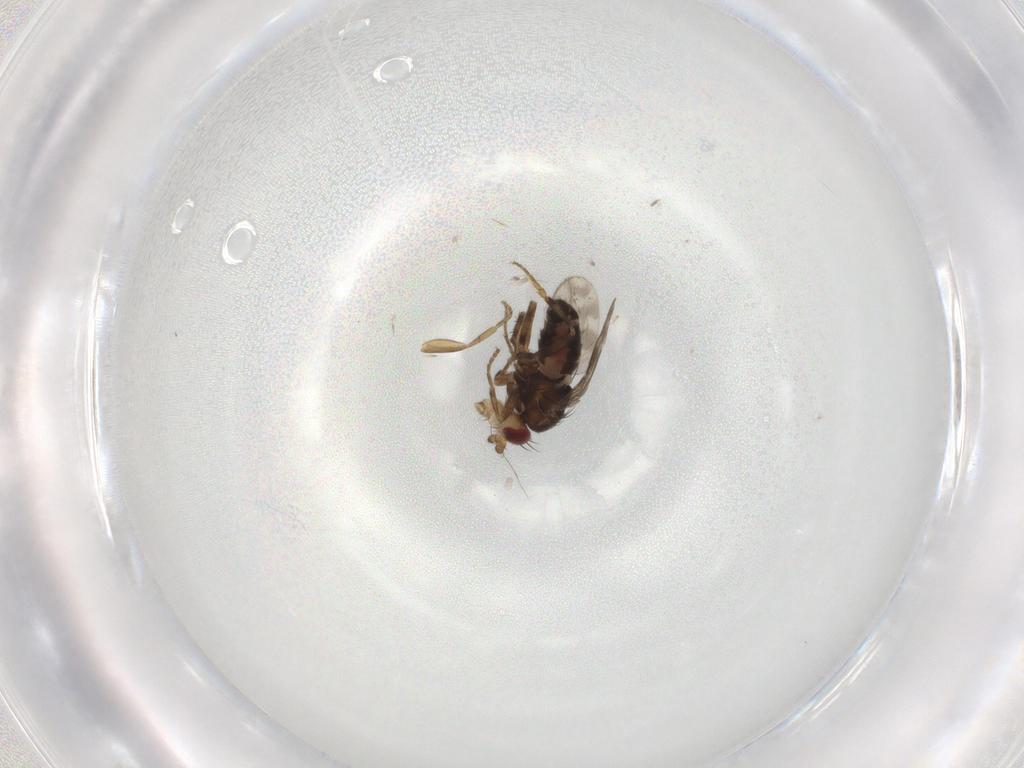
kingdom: Animalia
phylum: Arthropoda
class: Insecta
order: Diptera
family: Sphaeroceridae
